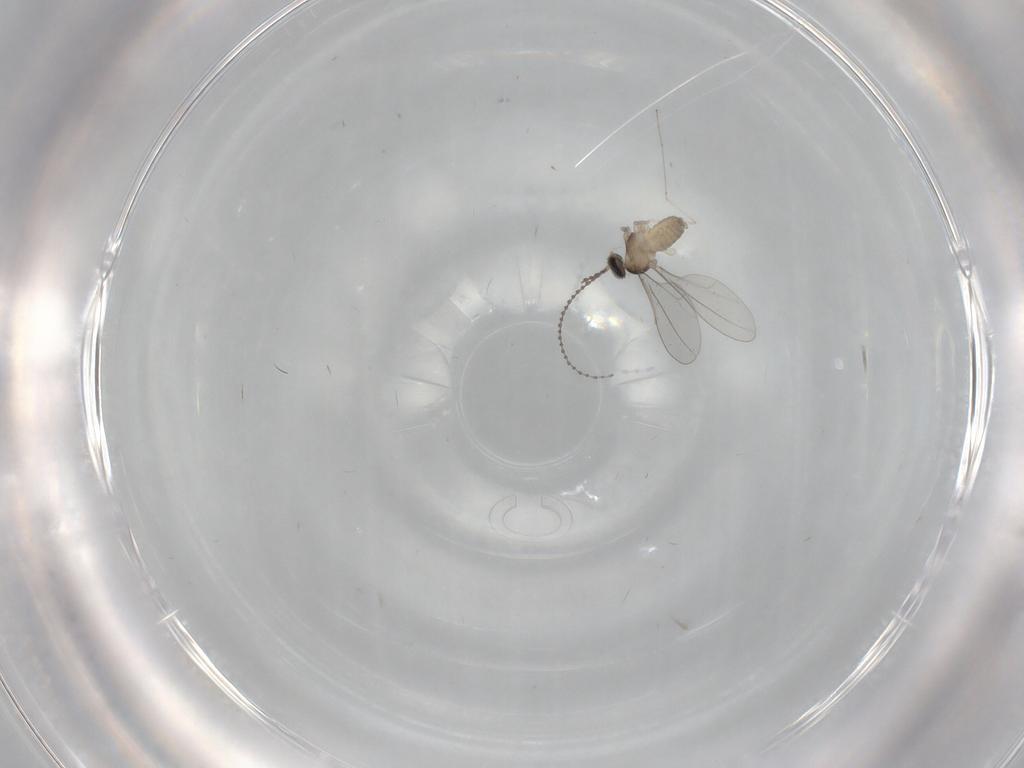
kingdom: Animalia
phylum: Arthropoda
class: Insecta
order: Diptera
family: Cecidomyiidae
